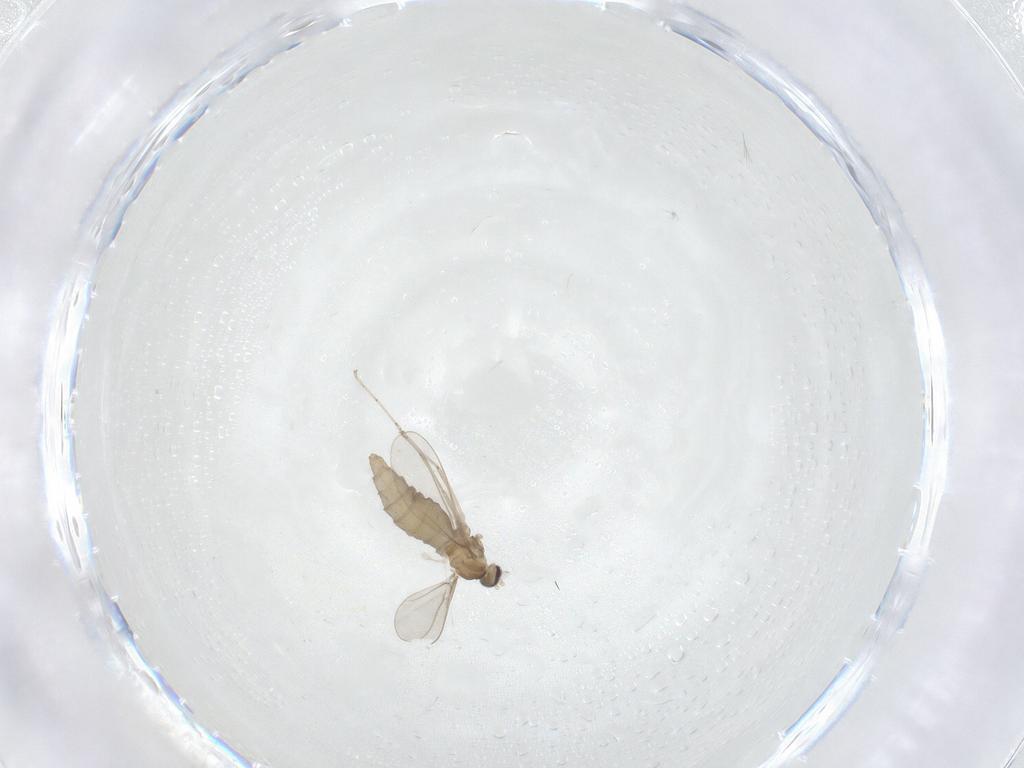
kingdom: Animalia
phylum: Arthropoda
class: Insecta
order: Diptera
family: Cecidomyiidae
